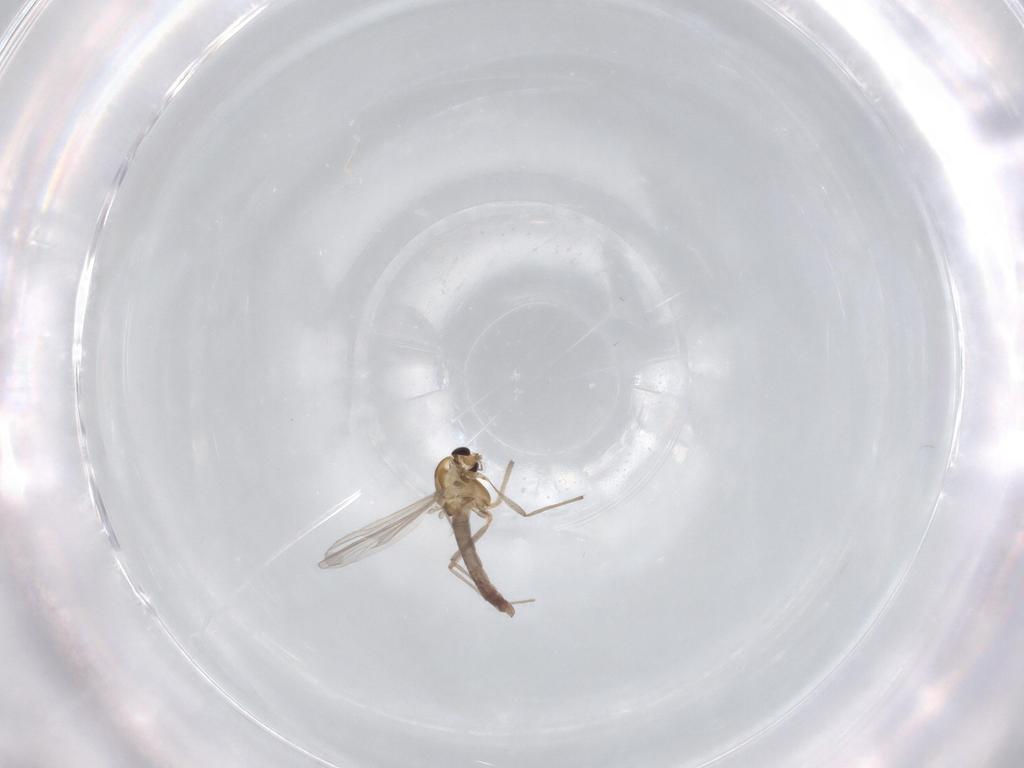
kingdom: Animalia
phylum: Arthropoda
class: Insecta
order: Diptera
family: Chironomidae
